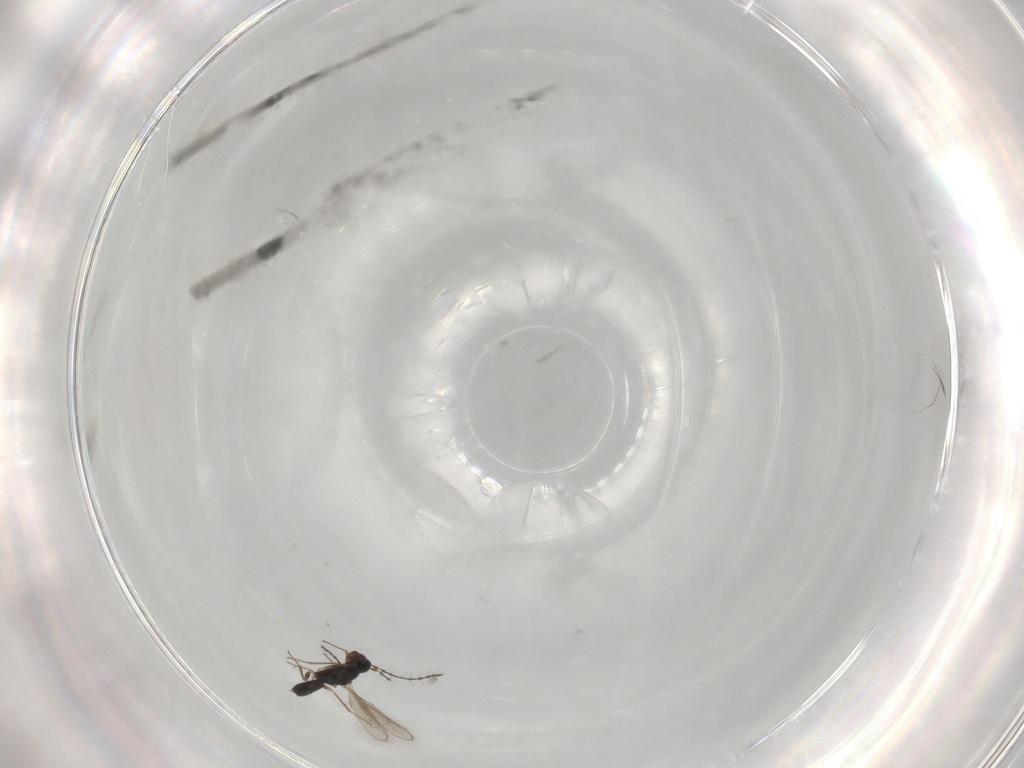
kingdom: Animalia
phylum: Arthropoda
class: Insecta
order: Hymenoptera
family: Pteromalidae
